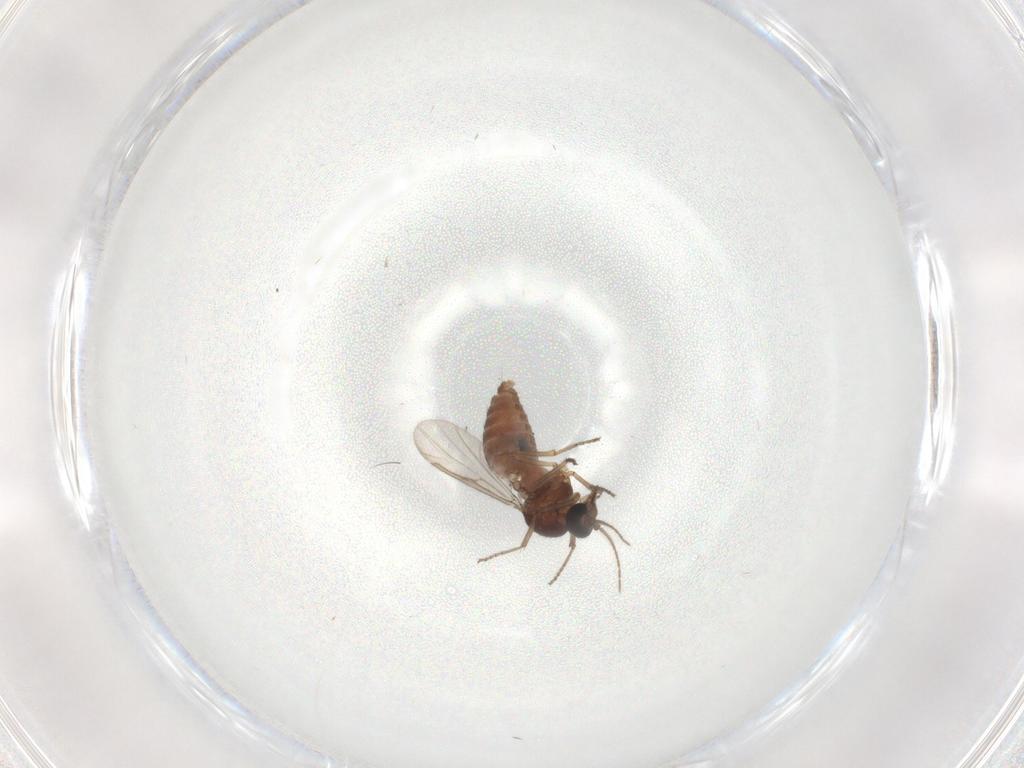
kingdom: Animalia
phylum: Arthropoda
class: Insecta
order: Diptera
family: Ceratopogonidae
